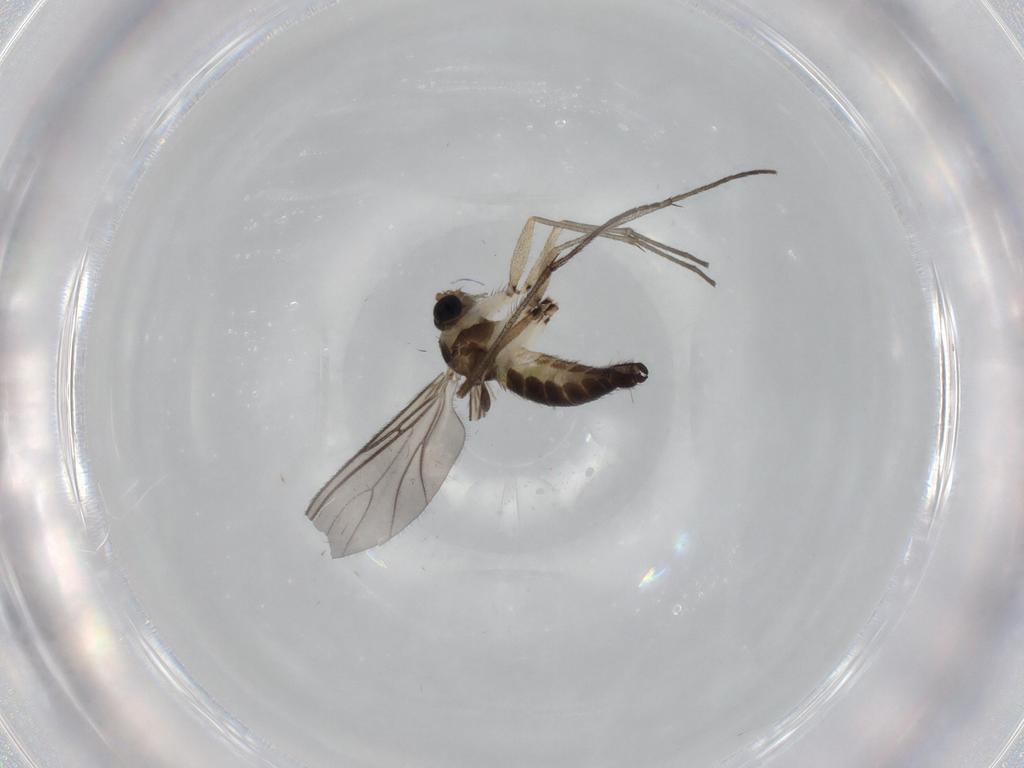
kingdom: Animalia
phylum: Arthropoda
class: Insecta
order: Diptera
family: Sciaridae
